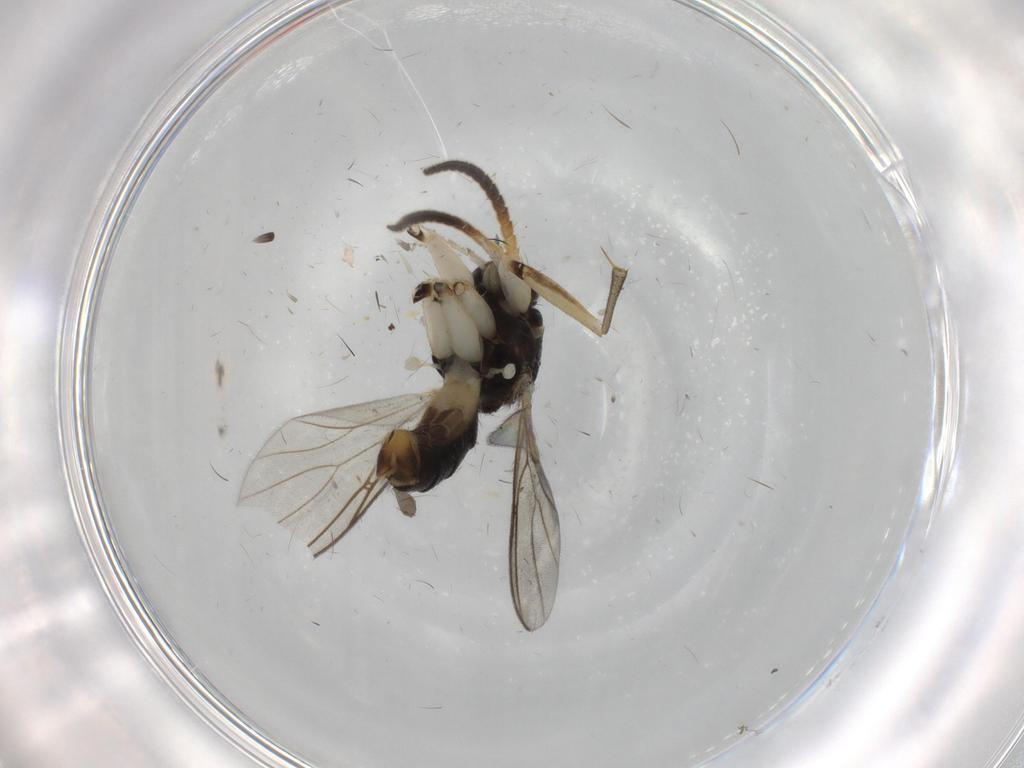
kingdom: Animalia
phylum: Arthropoda
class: Insecta
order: Diptera
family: Mycetophilidae
